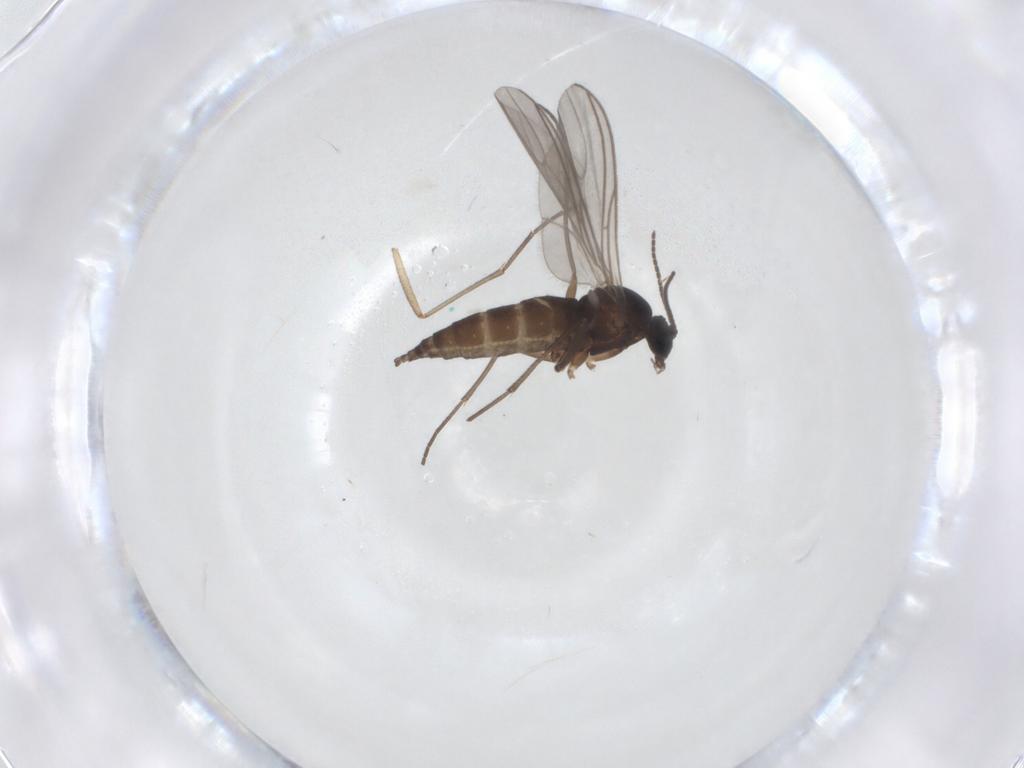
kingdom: Animalia
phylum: Arthropoda
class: Insecta
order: Diptera
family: Sciaridae
